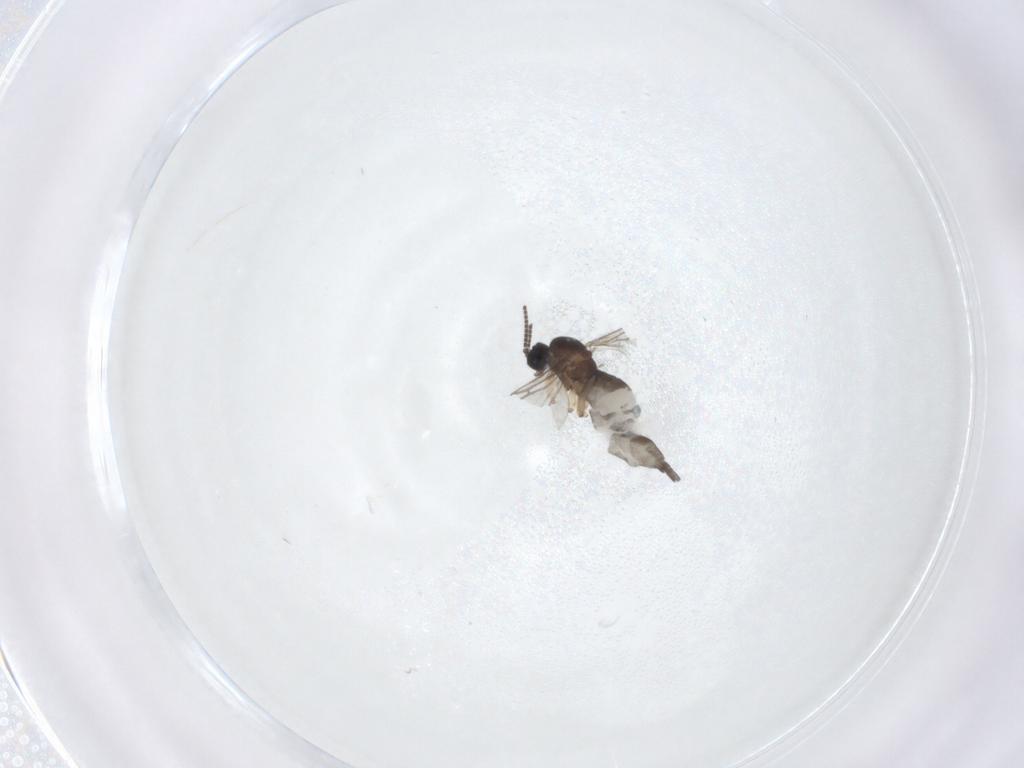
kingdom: Animalia
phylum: Arthropoda
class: Insecta
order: Diptera
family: Sciaridae
